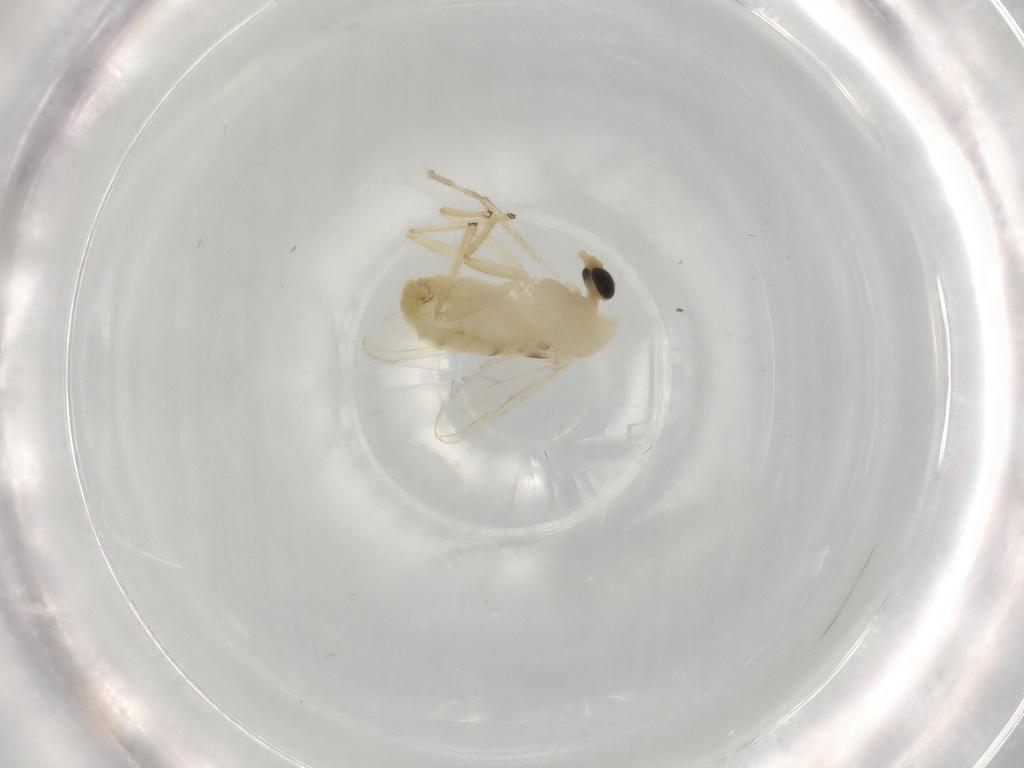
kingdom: Animalia
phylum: Arthropoda
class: Insecta
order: Diptera
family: Chironomidae
